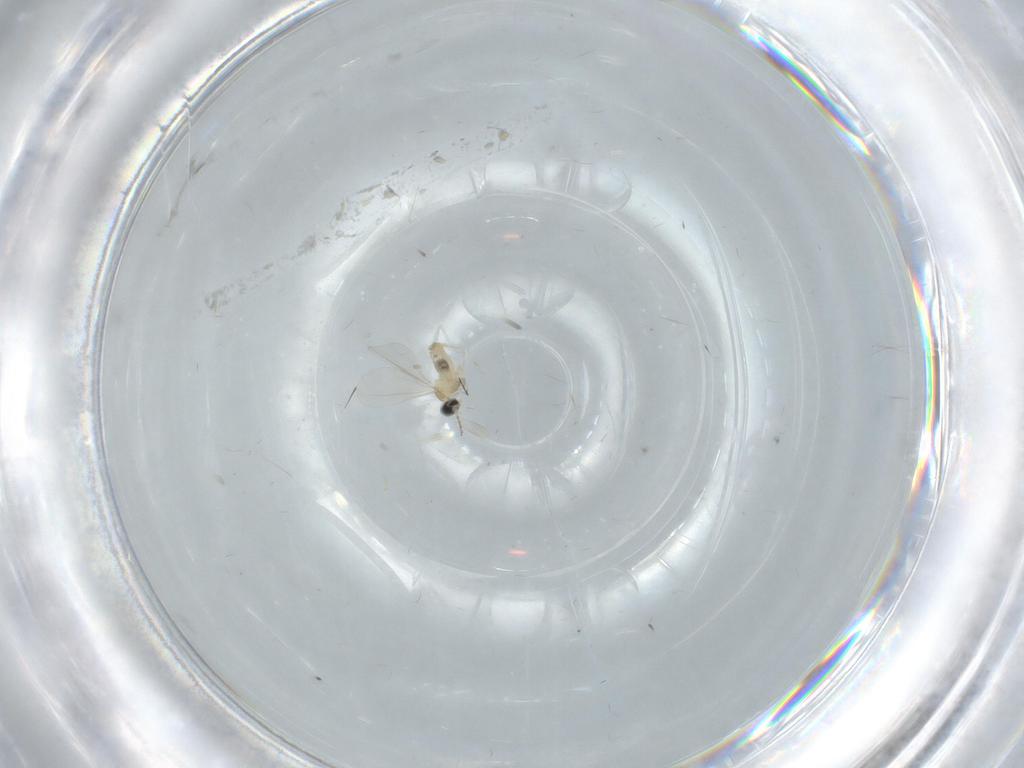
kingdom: Animalia
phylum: Arthropoda
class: Insecta
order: Diptera
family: Cecidomyiidae
